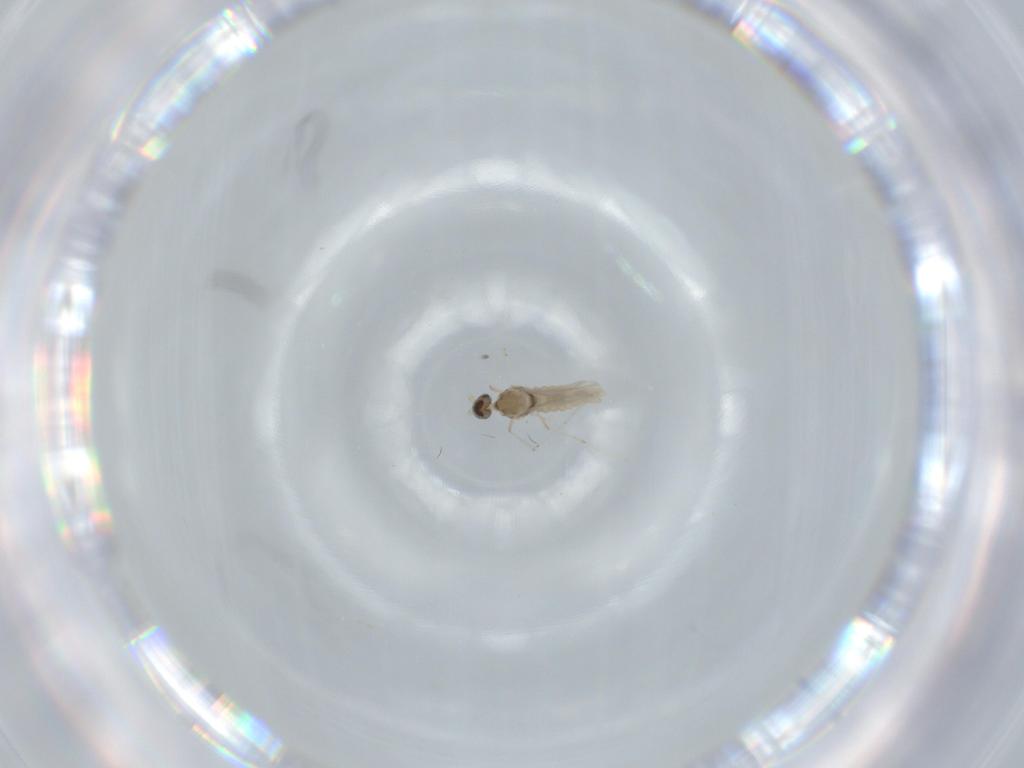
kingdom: Animalia
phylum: Arthropoda
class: Insecta
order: Diptera
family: Cecidomyiidae
